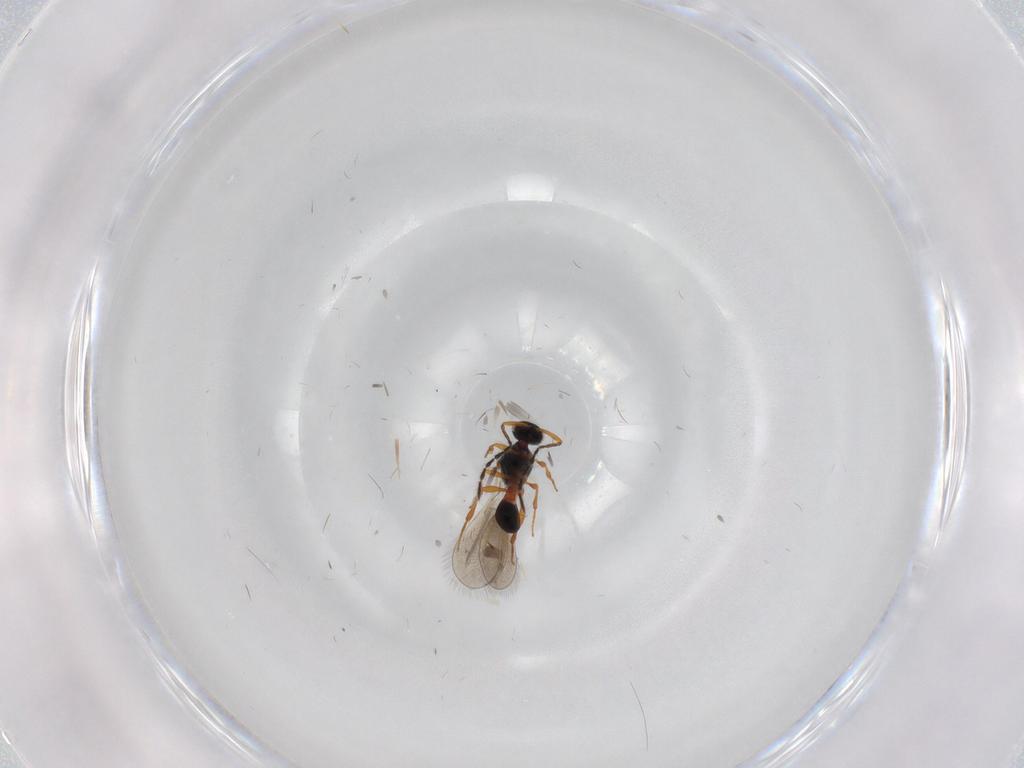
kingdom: Animalia
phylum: Arthropoda
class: Insecta
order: Hymenoptera
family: Platygastridae
